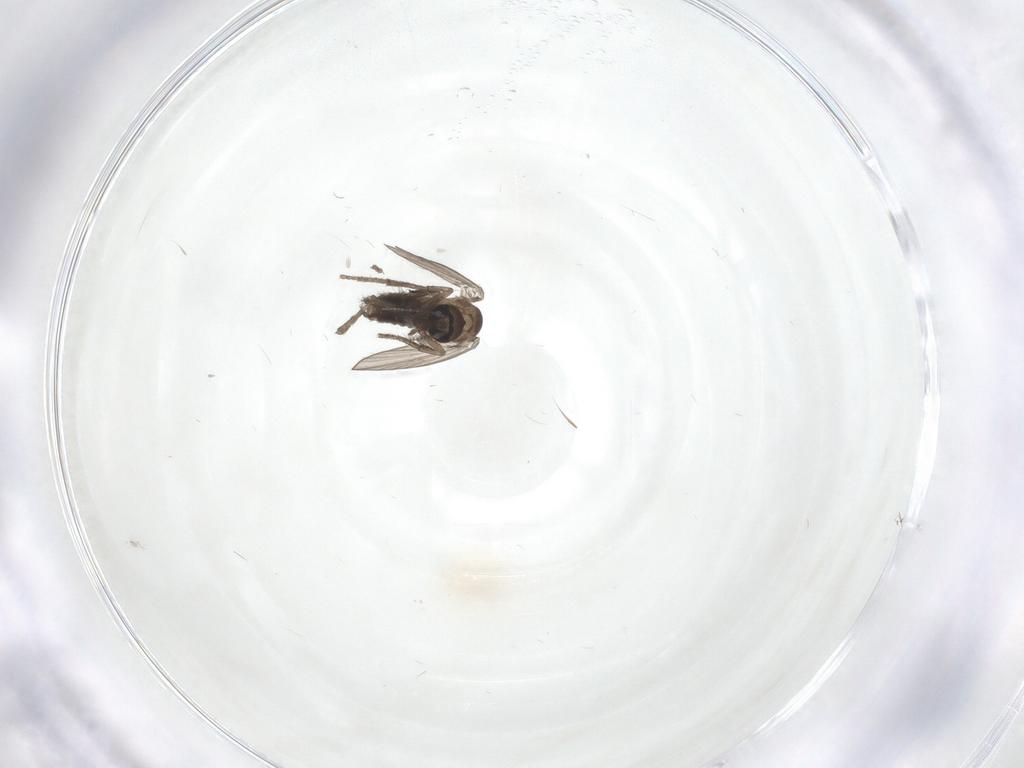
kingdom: Animalia
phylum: Arthropoda
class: Insecta
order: Diptera
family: Psychodidae
